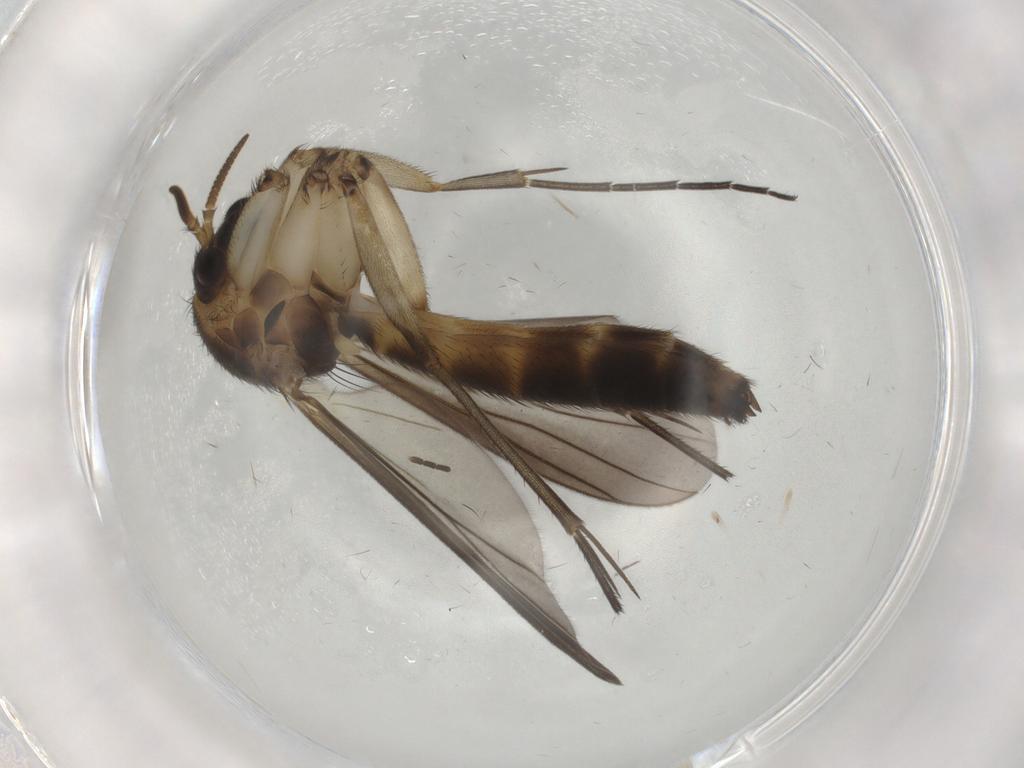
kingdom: Animalia
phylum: Arthropoda
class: Insecta
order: Diptera
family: Mycetophilidae
